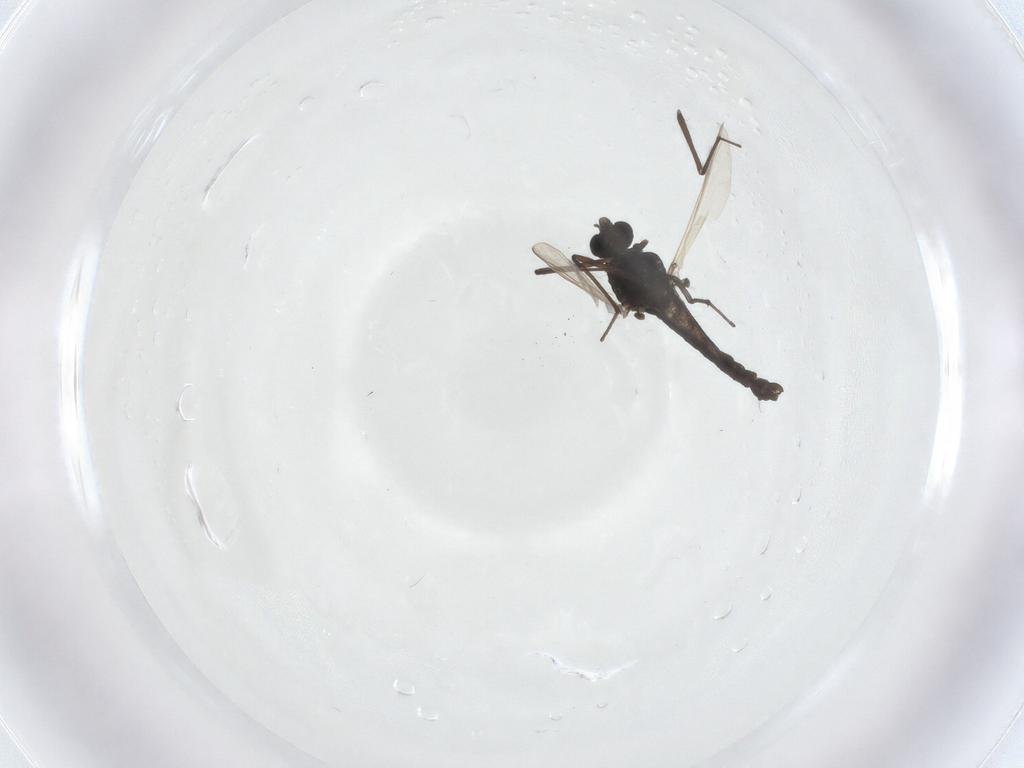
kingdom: Animalia
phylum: Arthropoda
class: Insecta
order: Diptera
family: Chironomidae
